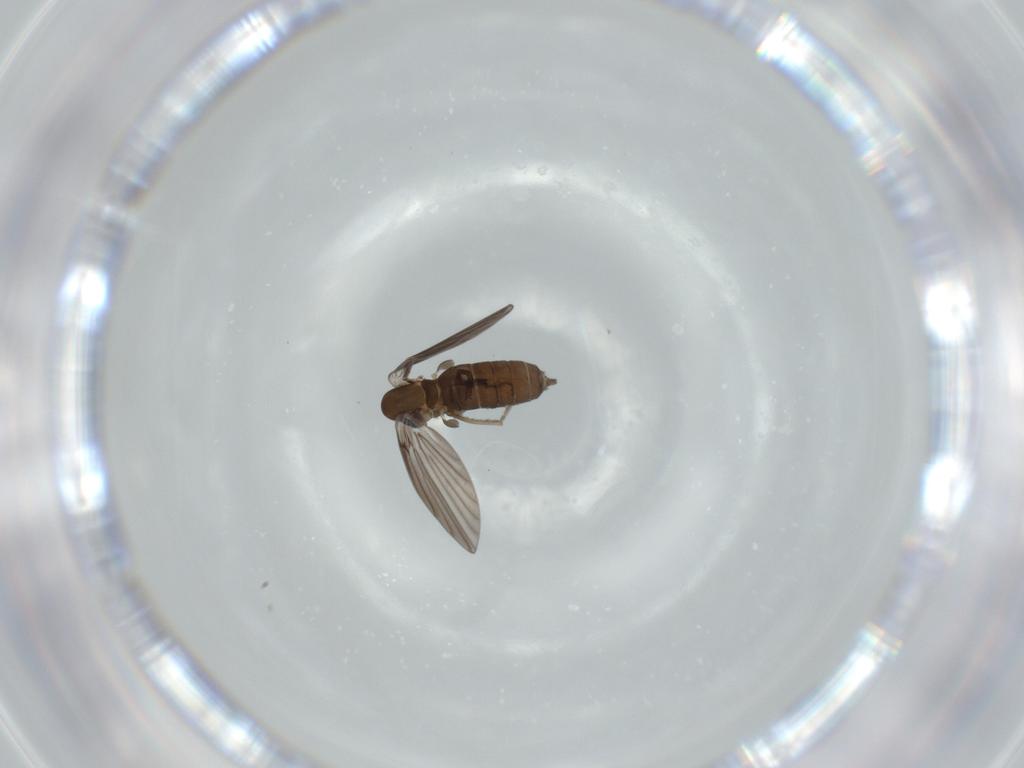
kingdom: Animalia
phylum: Arthropoda
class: Insecta
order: Diptera
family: Psychodidae
